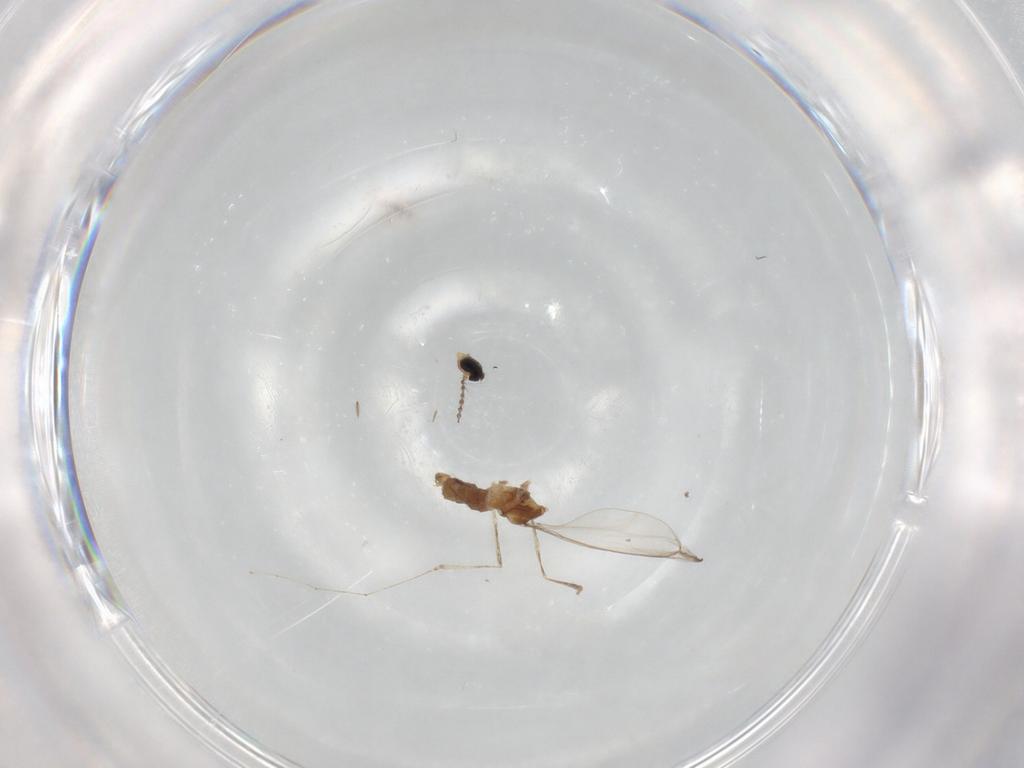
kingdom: Animalia
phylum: Arthropoda
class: Insecta
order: Diptera
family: Cecidomyiidae
